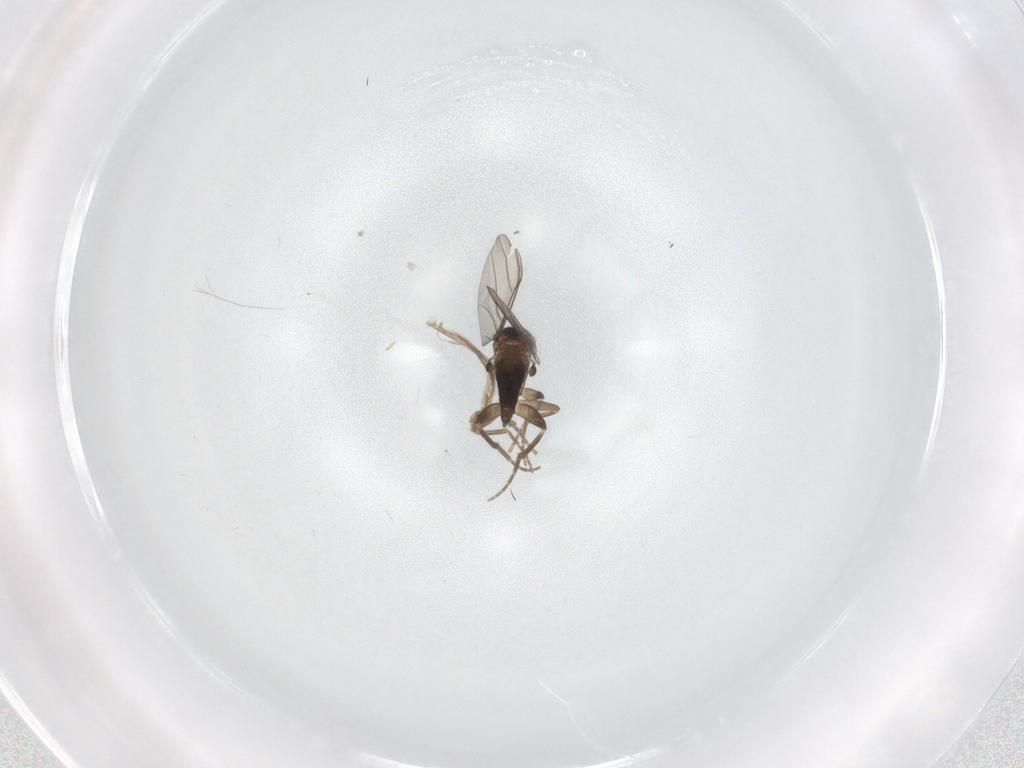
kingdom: Animalia
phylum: Arthropoda
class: Insecta
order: Diptera
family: Phoridae
